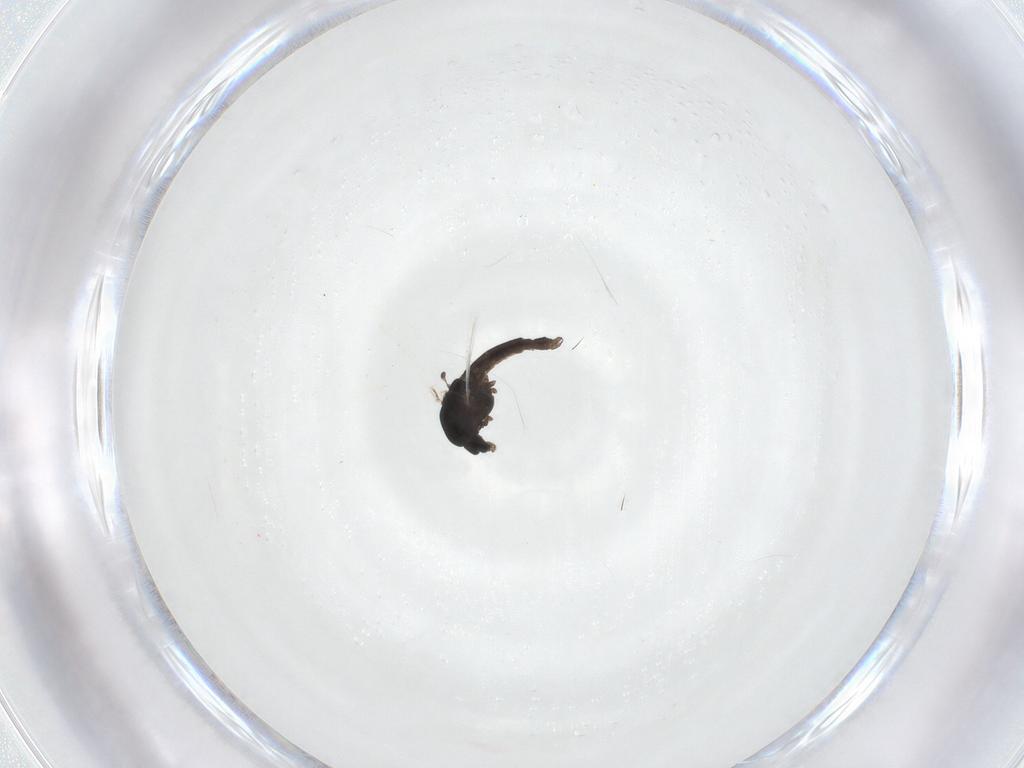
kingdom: Animalia
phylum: Arthropoda
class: Insecta
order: Diptera
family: Chironomidae
